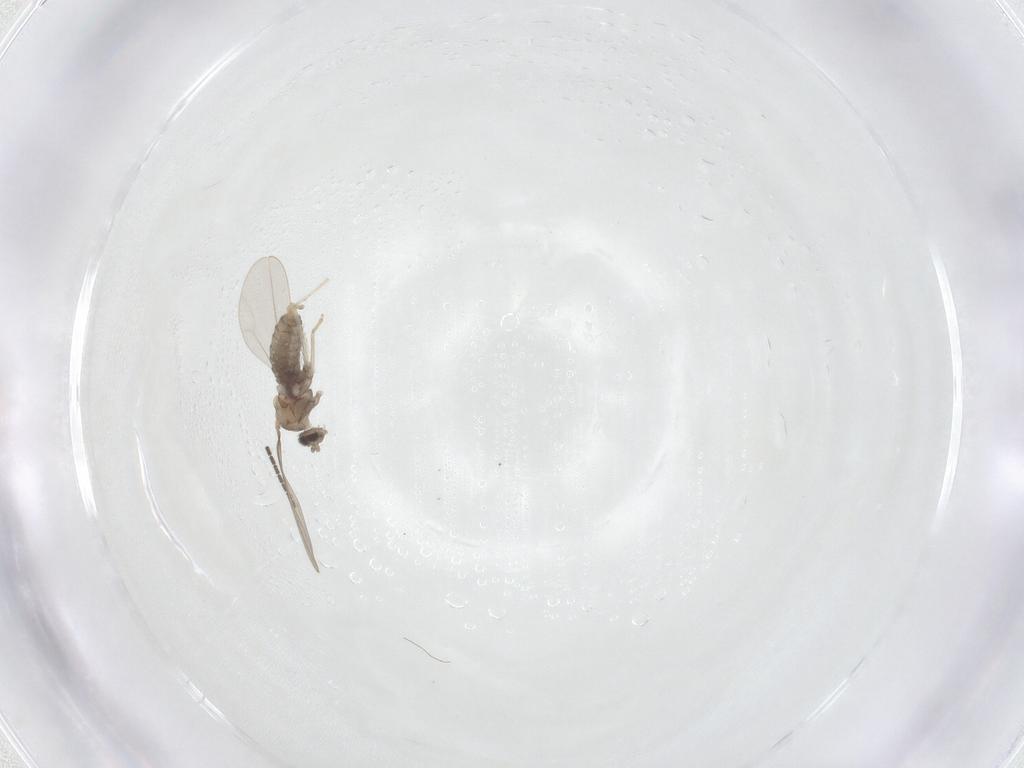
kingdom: Animalia
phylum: Arthropoda
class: Insecta
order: Diptera
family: Sciaridae
